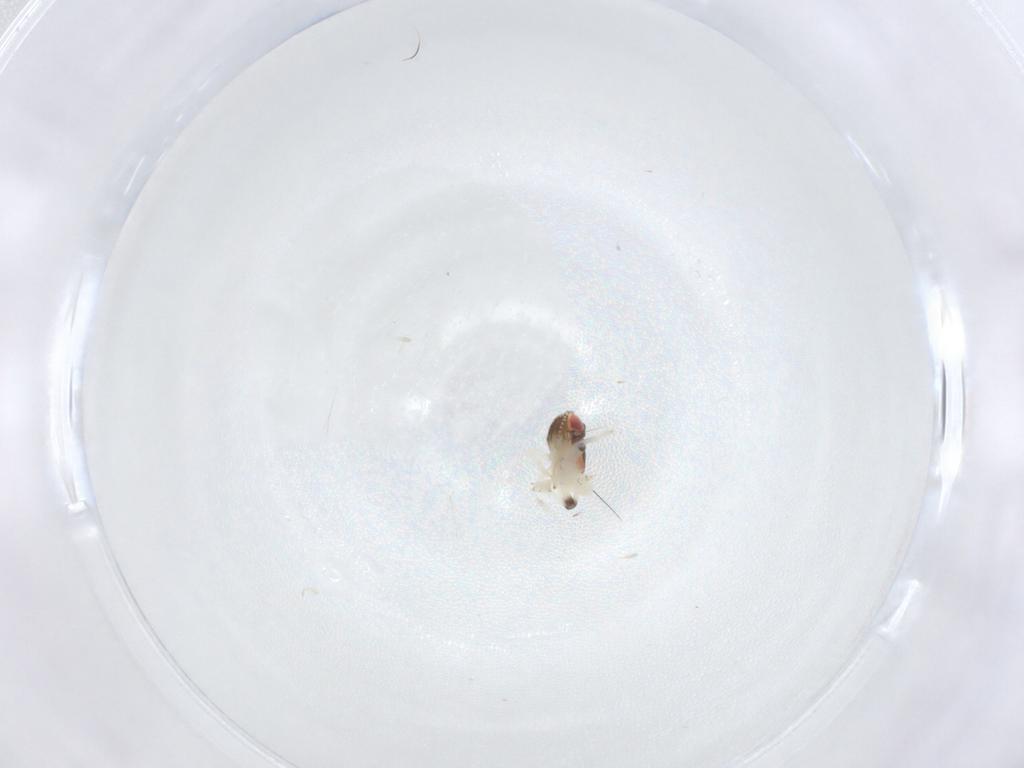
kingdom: Animalia
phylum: Arthropoda
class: Insecta
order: Hemiptera
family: Nogodinidae
